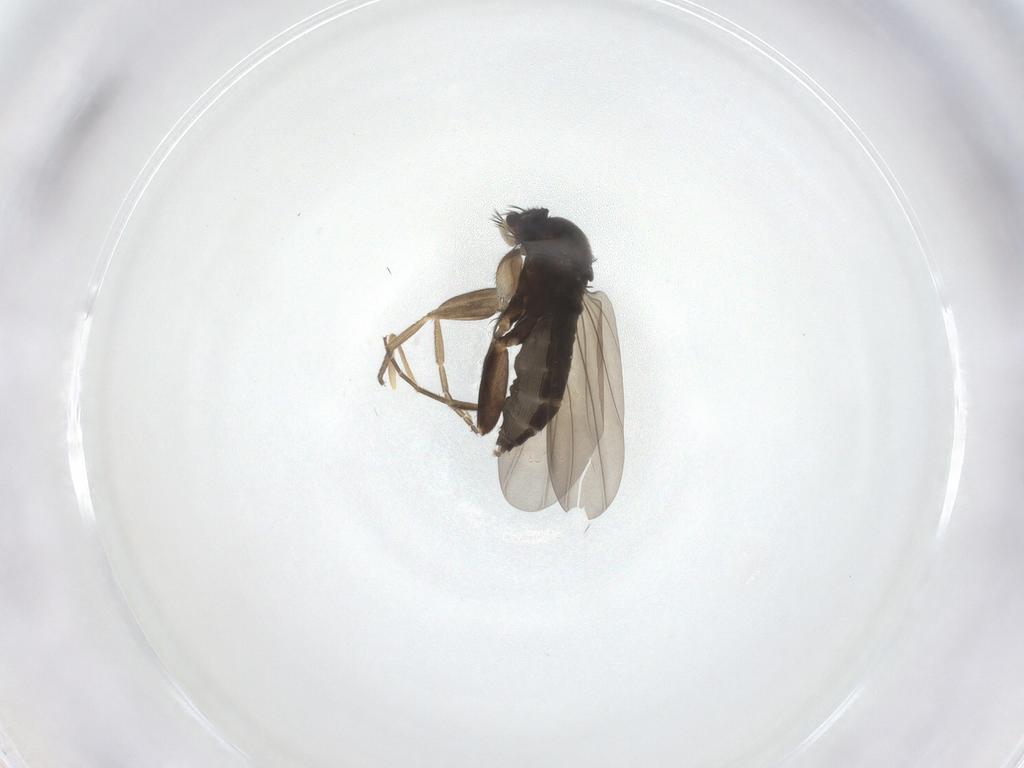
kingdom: Animalia
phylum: Arthropoda
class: Insecta
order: Diptera
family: Phoridae
